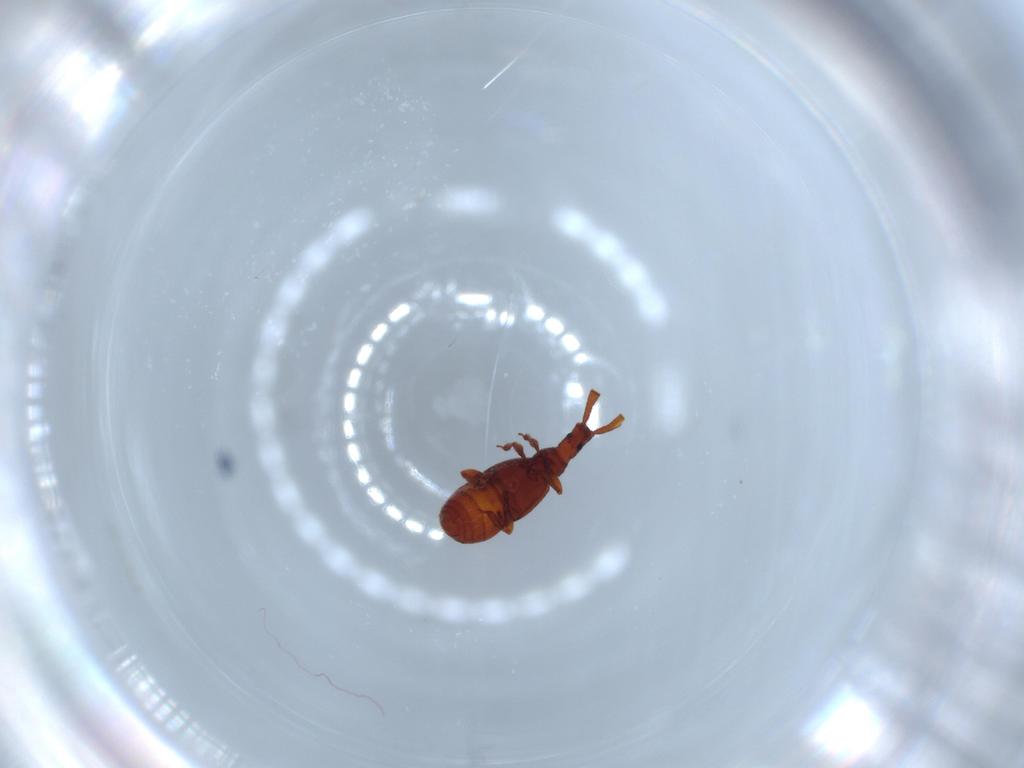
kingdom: Animalia
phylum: Arthropoda
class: Insecta
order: Coleoptera
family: Staphylinidae
